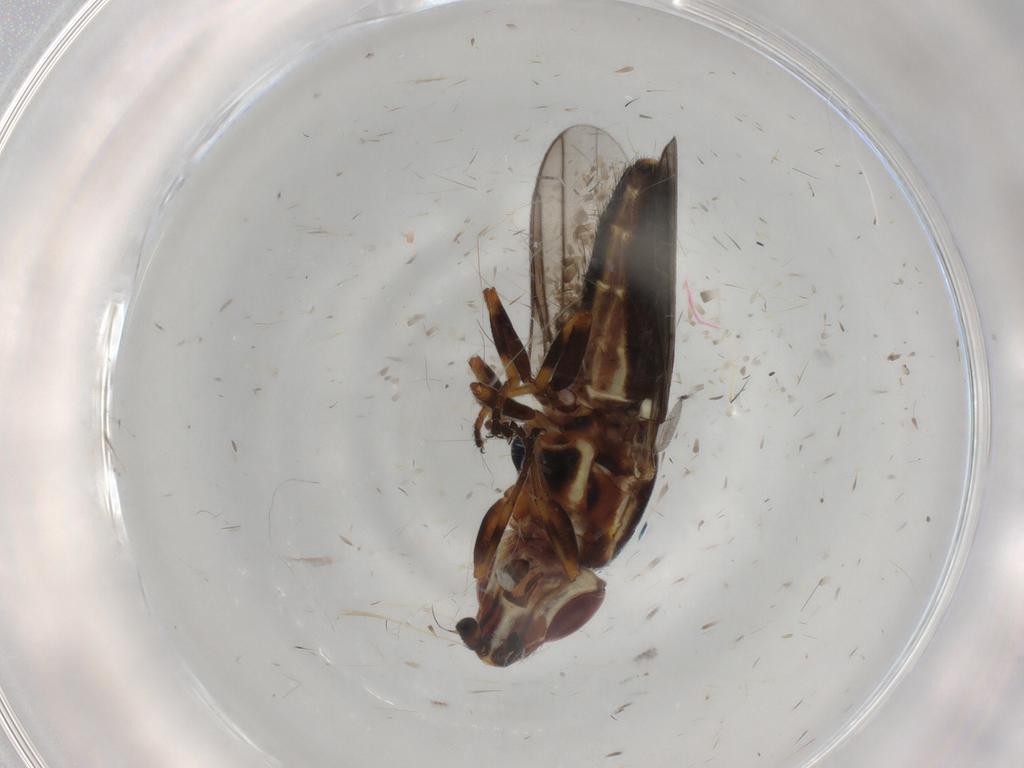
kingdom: Animalia
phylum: Arthropoda
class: Insecta
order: Diptera
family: Chloropidae
